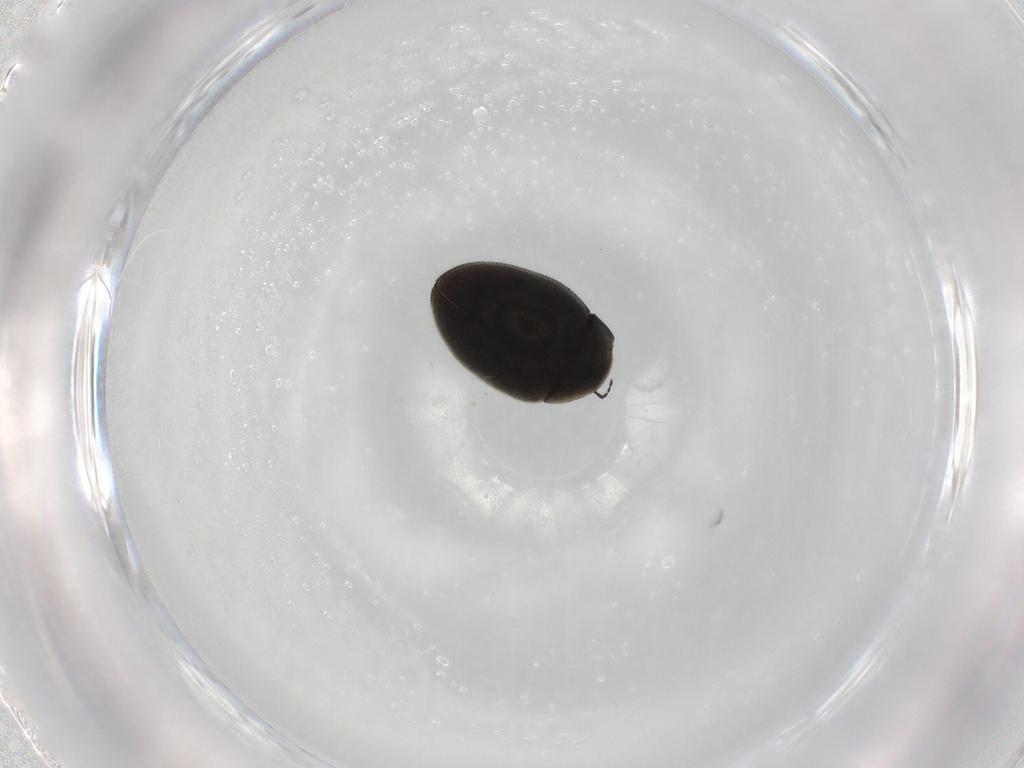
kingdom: Animalia
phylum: Arthropoda
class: Insecta
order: Coleoptera
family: Limnichidae
